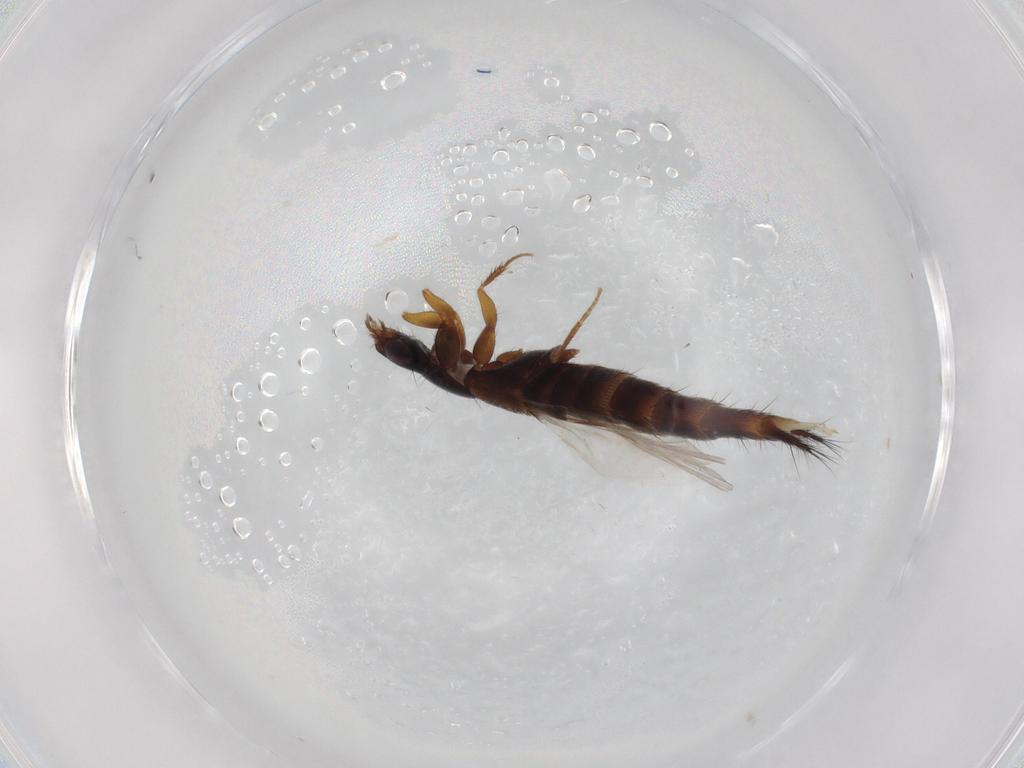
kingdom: Animalia
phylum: Arthropoda
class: Insecta
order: Coleoptera
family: Staphylinidae
